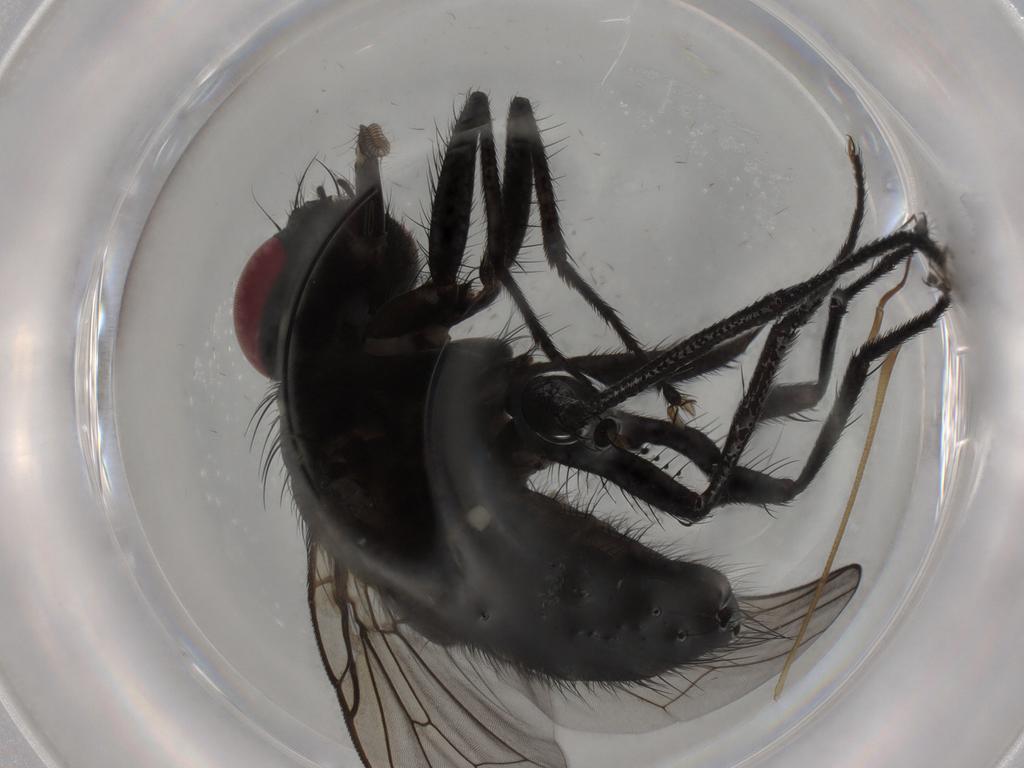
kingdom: Animalia
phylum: Arthropoda
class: Insecta
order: Diptera
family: Muscidae
